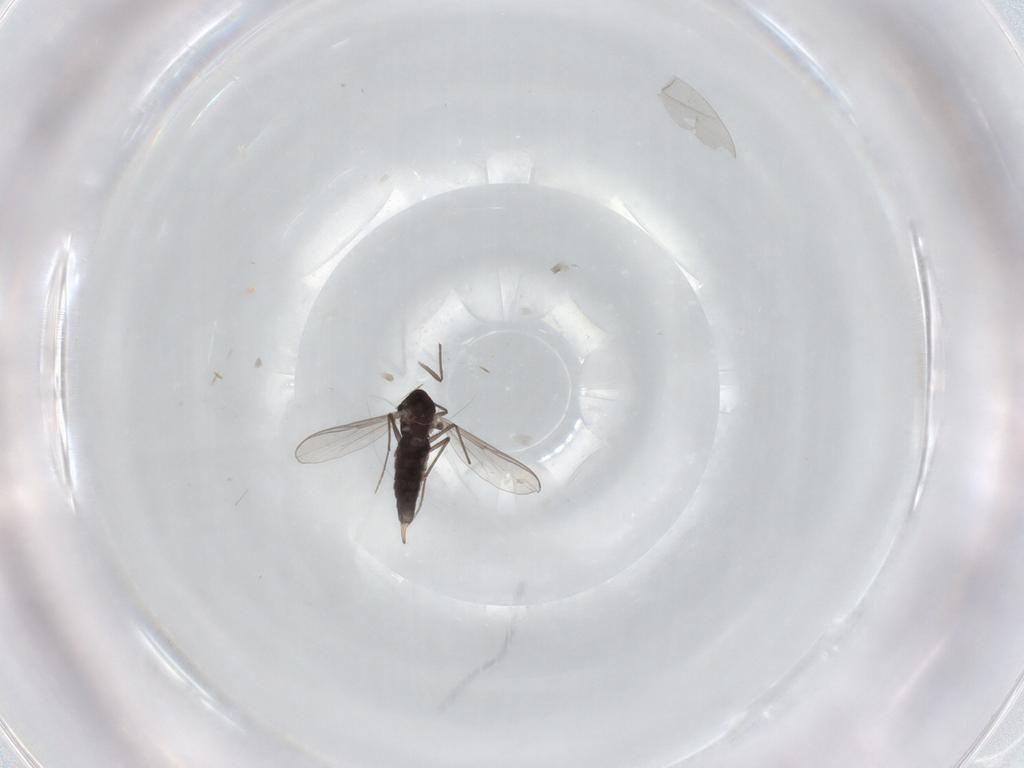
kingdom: Animalia
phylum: Arthropoda
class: Insecta
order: Diptera
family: Chironomidae
